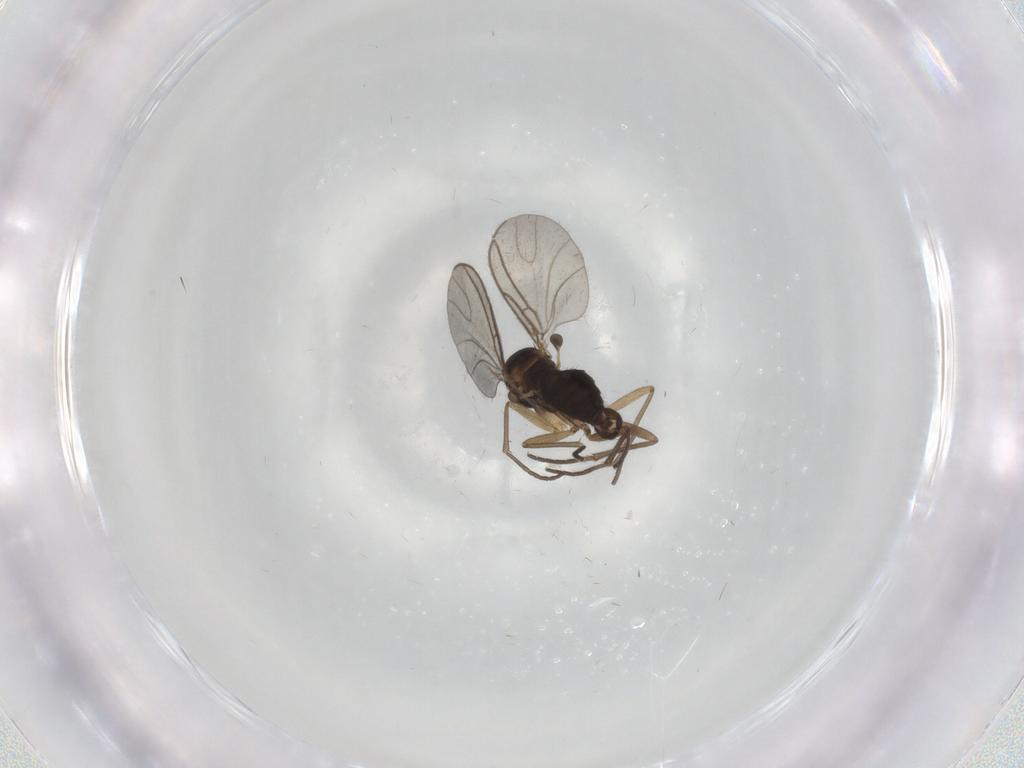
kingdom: Animalia
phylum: Arthropoda
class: Insecta
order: Diptera
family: Sciaridae
